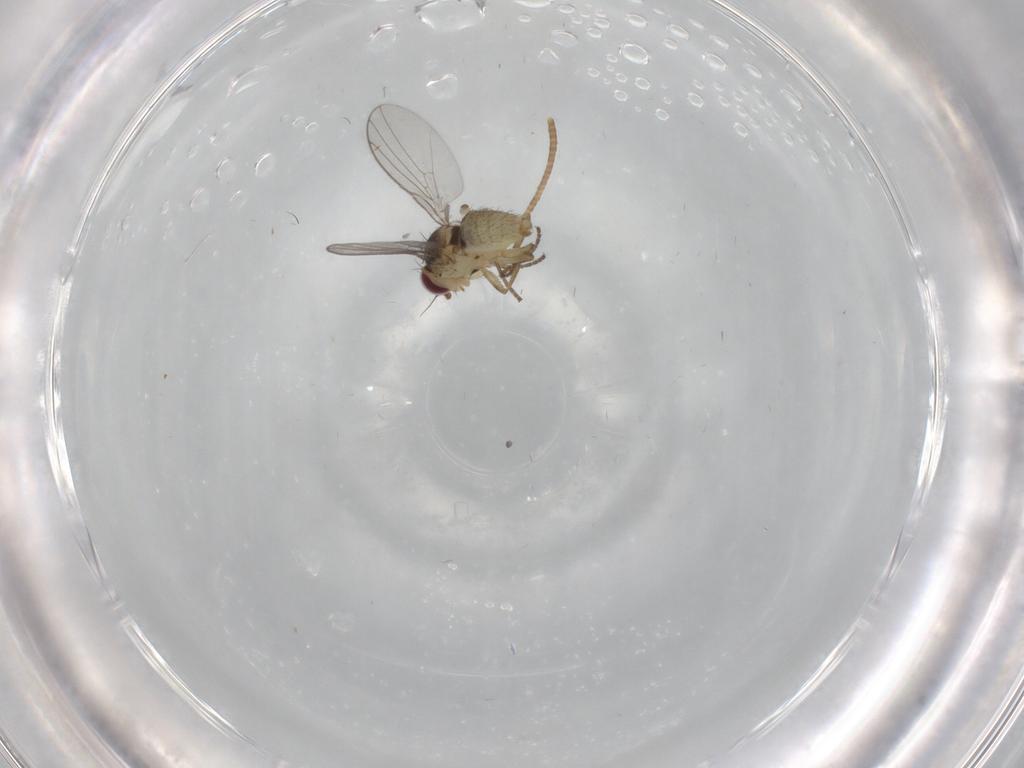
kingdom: Animalia
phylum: Arthropoda
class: Insecta
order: Diptera
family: Agromyzidae
